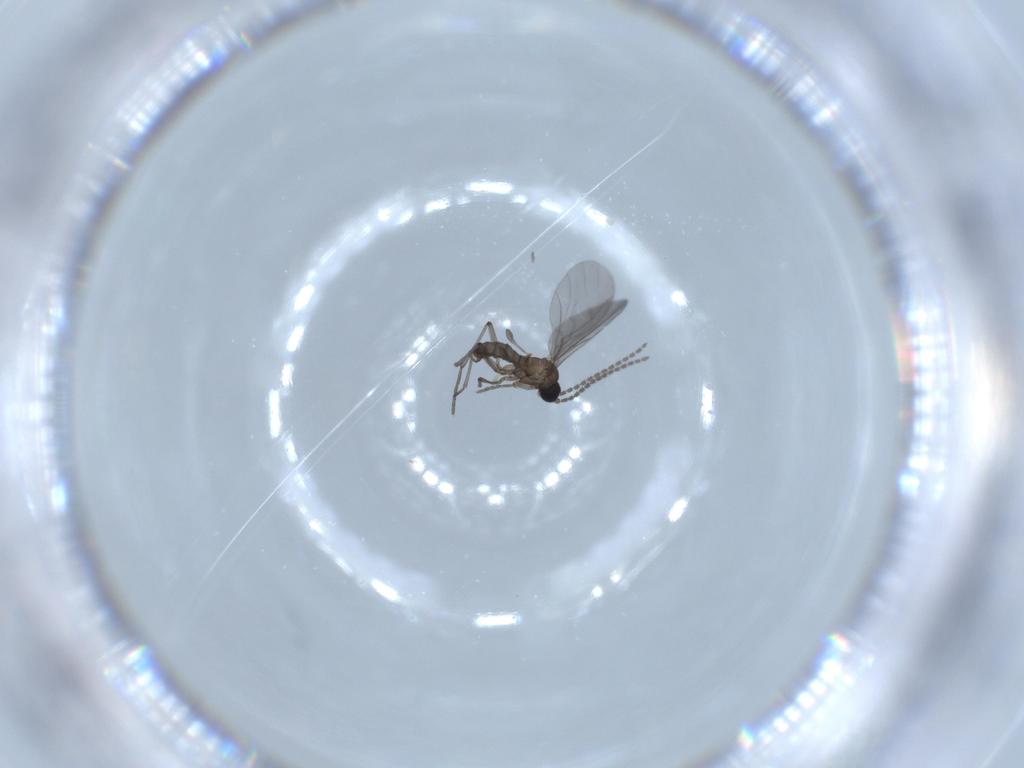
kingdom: Animalia
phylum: Arthropoda
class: Insecta
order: Diptera
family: Sciaridae
